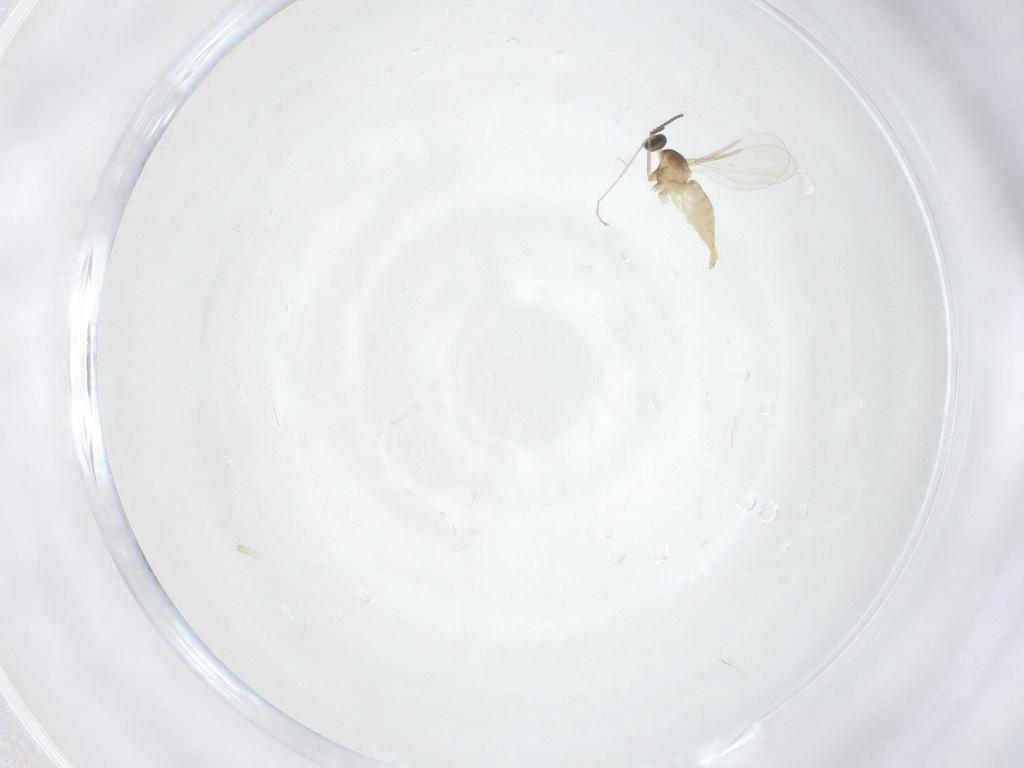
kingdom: Animalia
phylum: Arthropoda
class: Insecta
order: Diptera
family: Cecidomyiidae
